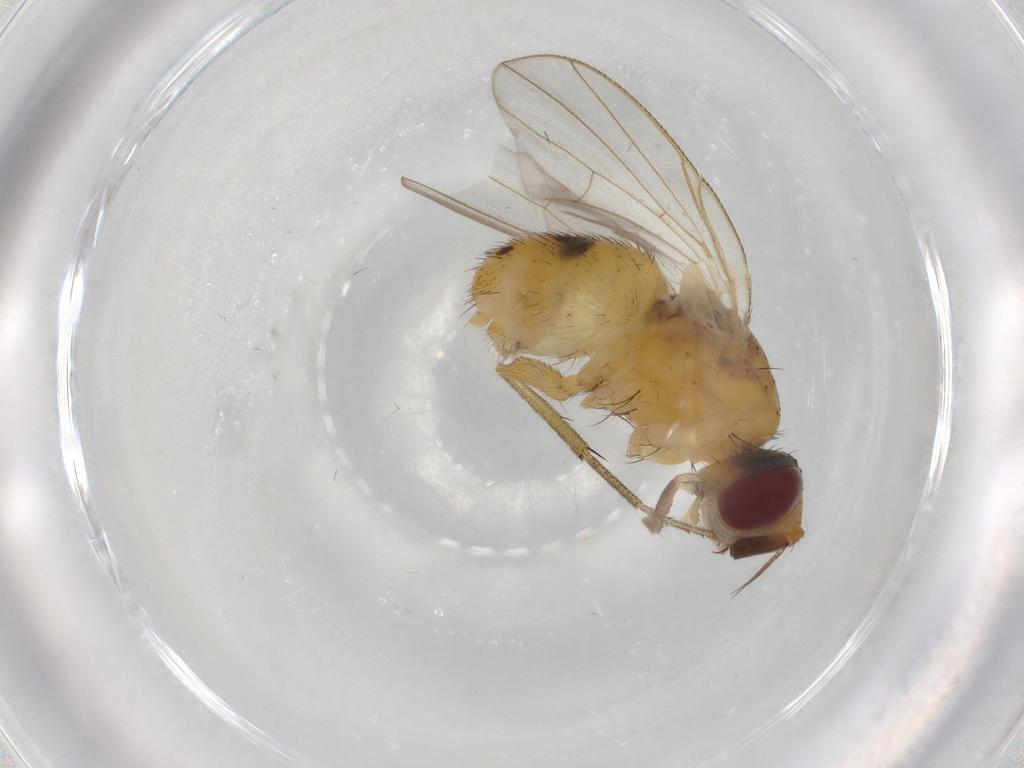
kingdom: Animalia
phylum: Arthropoda
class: Insecta
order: Diptera
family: Muscidae
